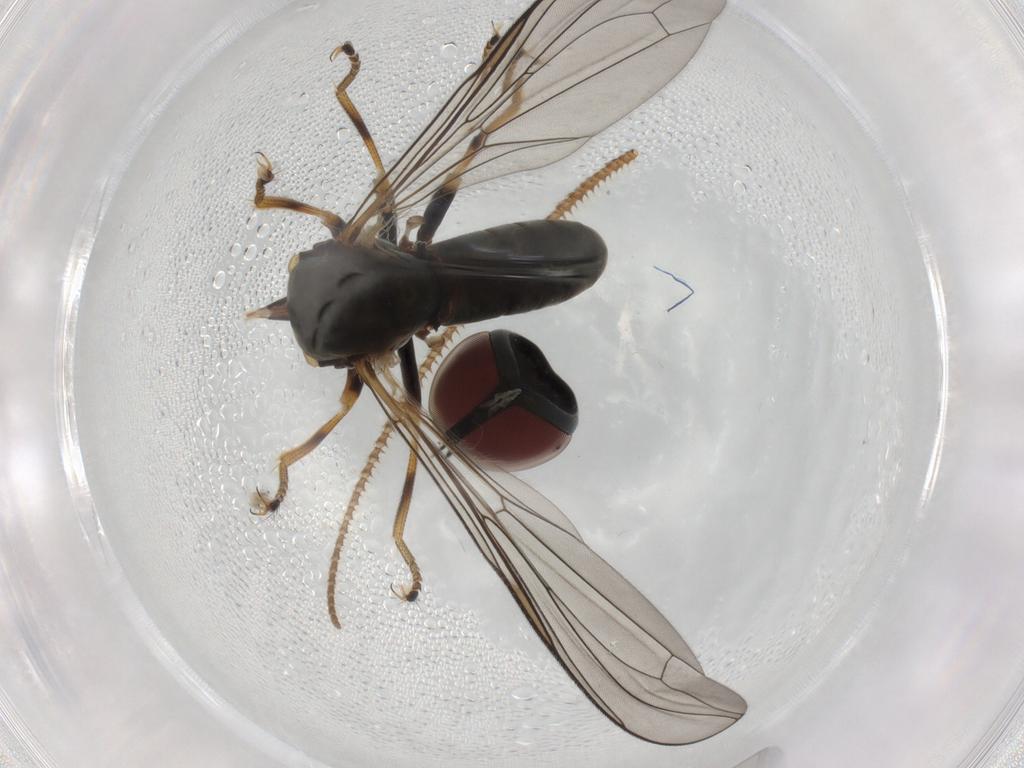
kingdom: Animalia
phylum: Arthropoda
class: Insecta
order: Diptera
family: Pipunculidae
